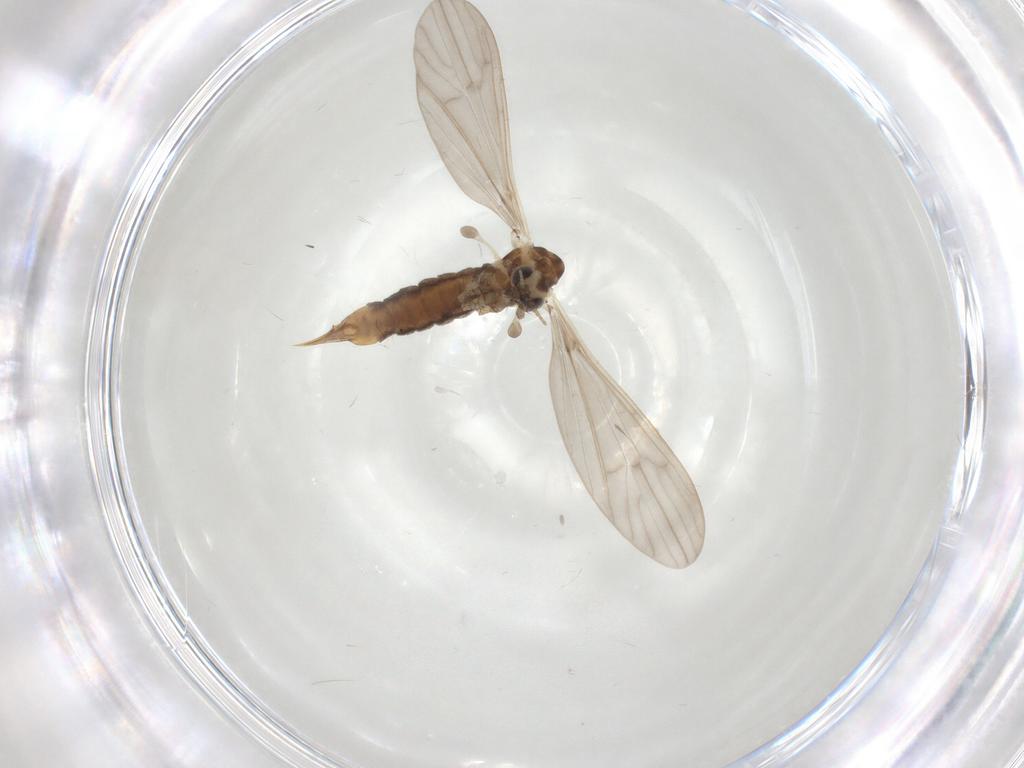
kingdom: Animalia
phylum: Arthropoda
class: Insecta
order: Diptera
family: Limoniidae
